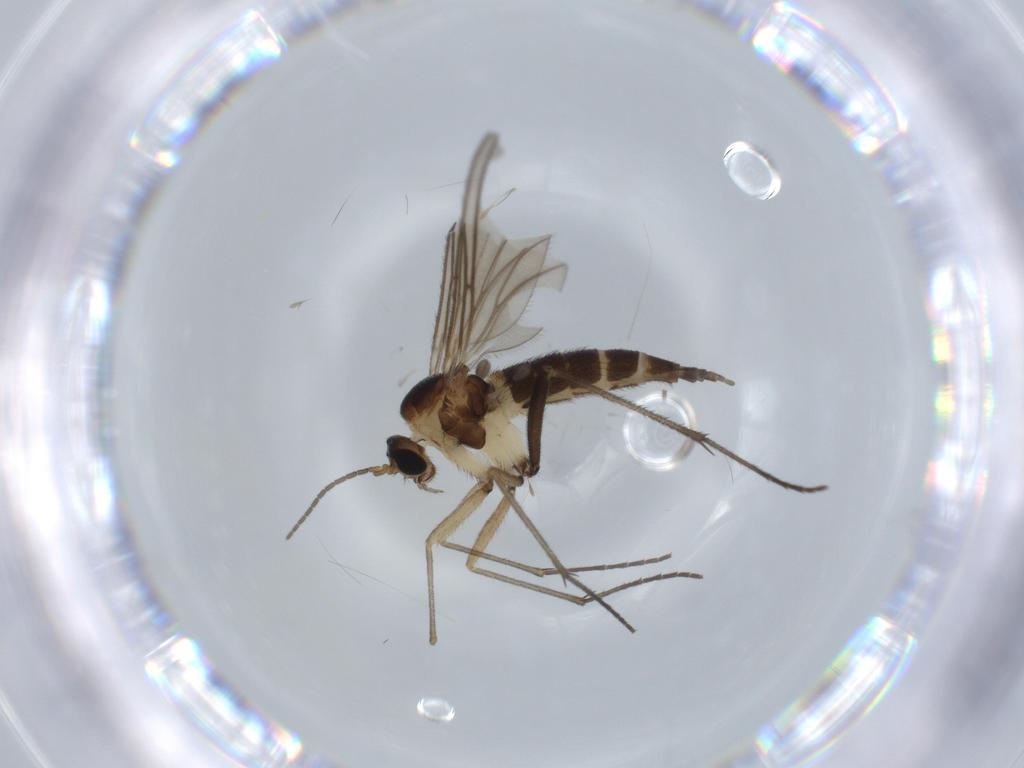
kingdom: Animalia
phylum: Arthropoda
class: Insecta
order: Diptera
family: Sciaridae
